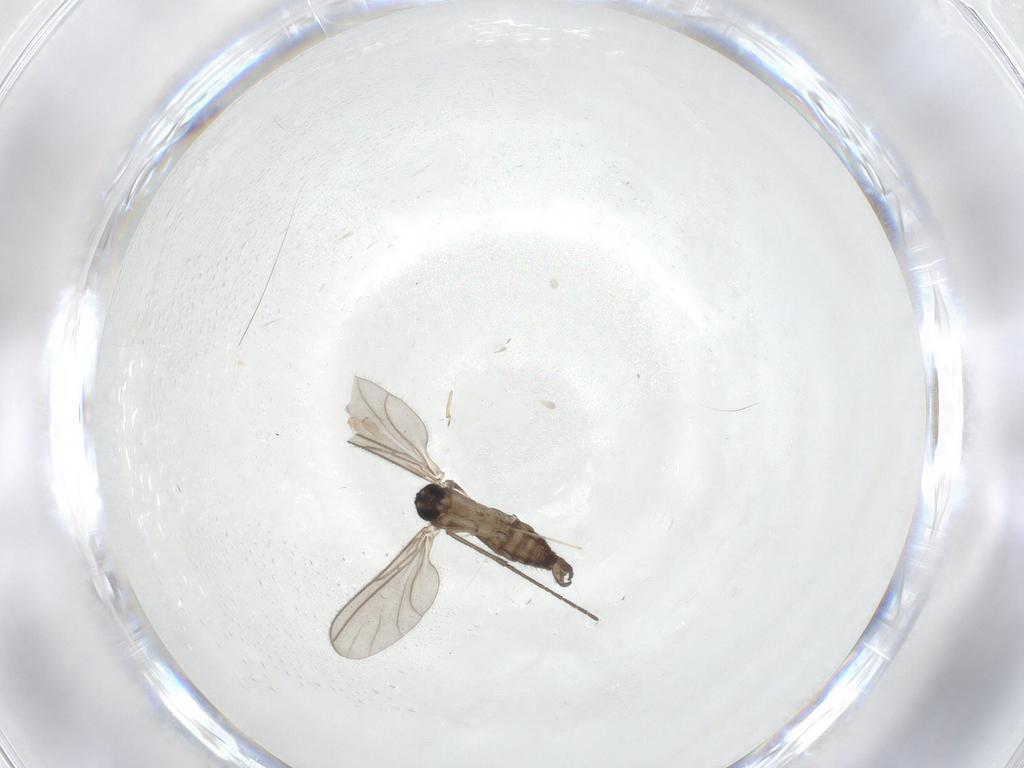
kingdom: Animalia
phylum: Arthropoda
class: Insecta
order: Diptera
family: Sciaridae
